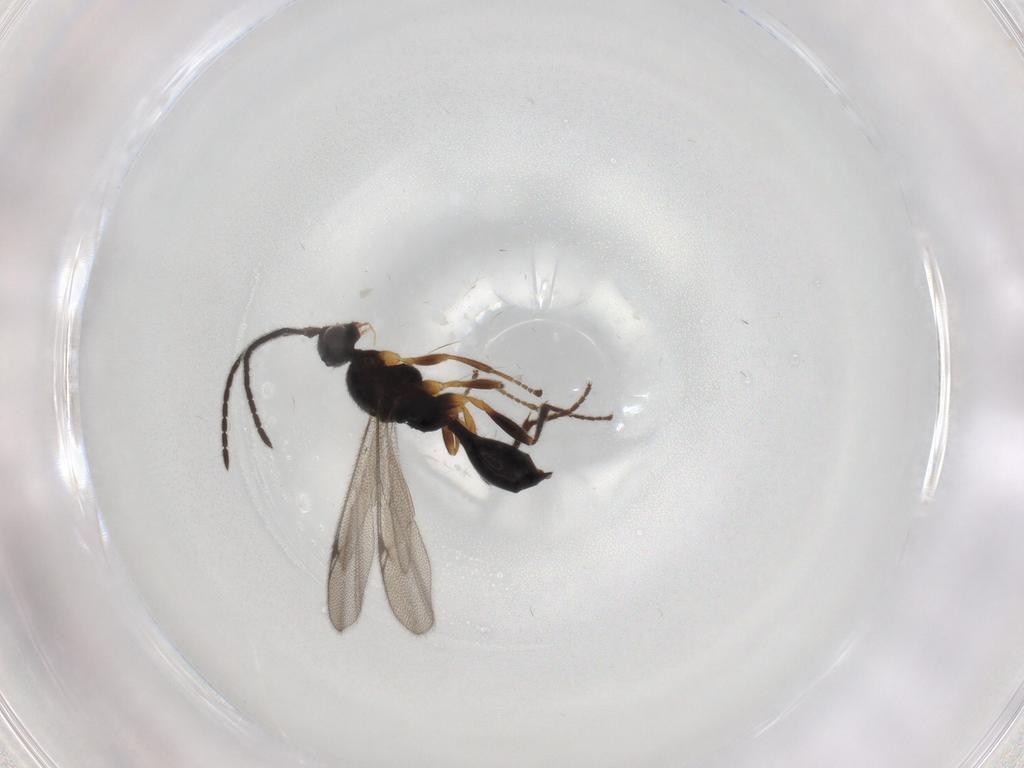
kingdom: Animalia
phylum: Arthropoda
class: Insecta
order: Hymenoptera
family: Proctotrupidae
